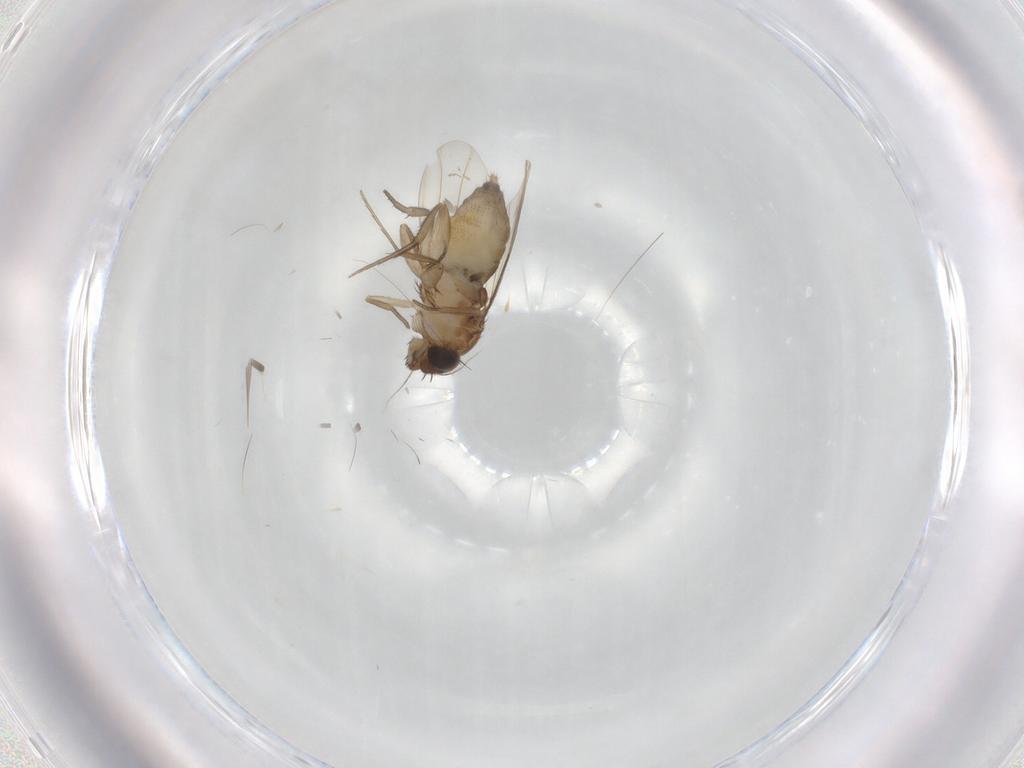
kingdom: Animalia
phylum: Arthropoda
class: Insecta
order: Diptera
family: Phoridae
